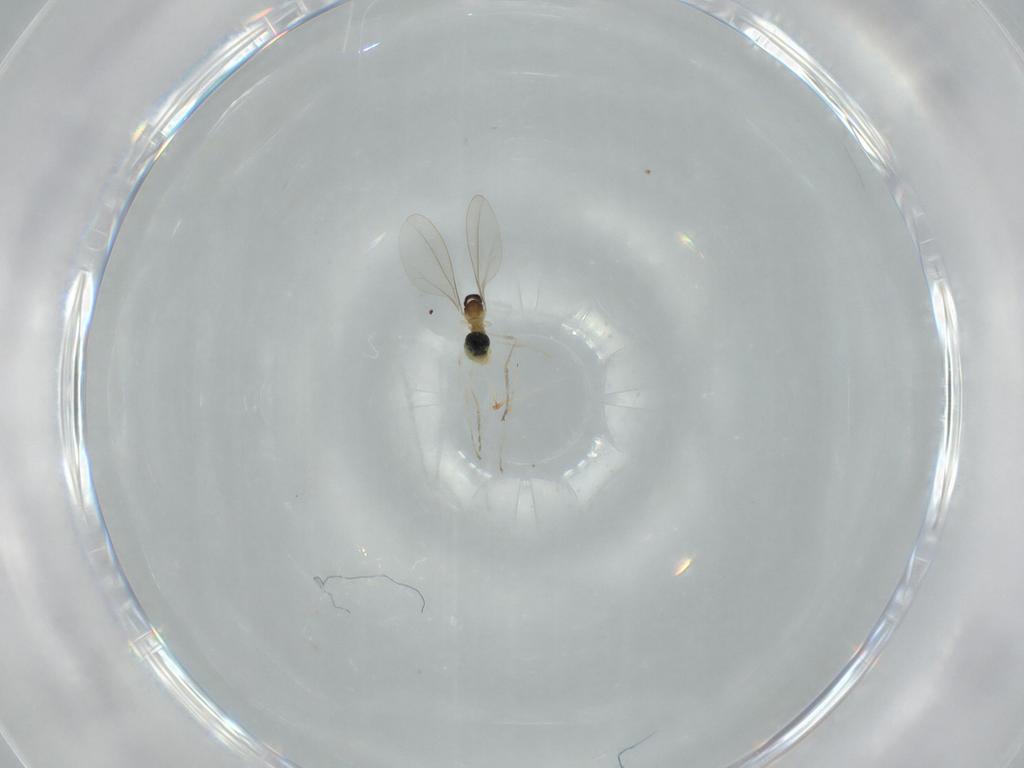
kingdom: Animalia
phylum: Arthropoda
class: Insecta
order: Diptera
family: Cecidomyiidae
